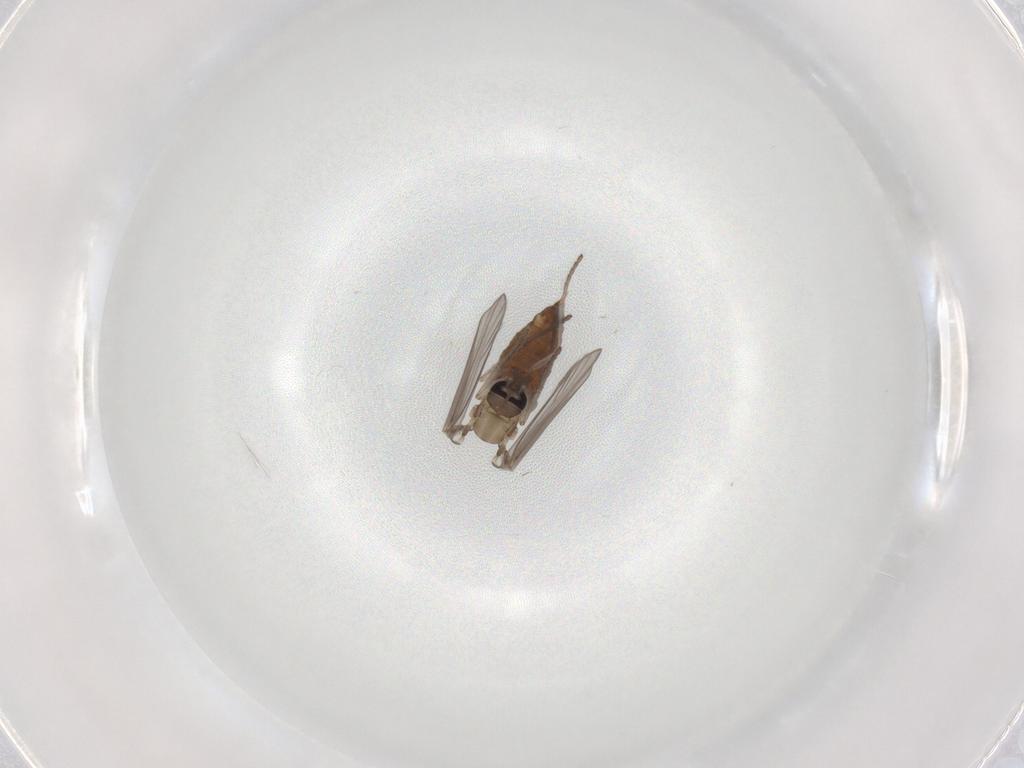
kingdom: Animalia
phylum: Arthropoda
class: Insecta
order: Diptera
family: Psychodidae
